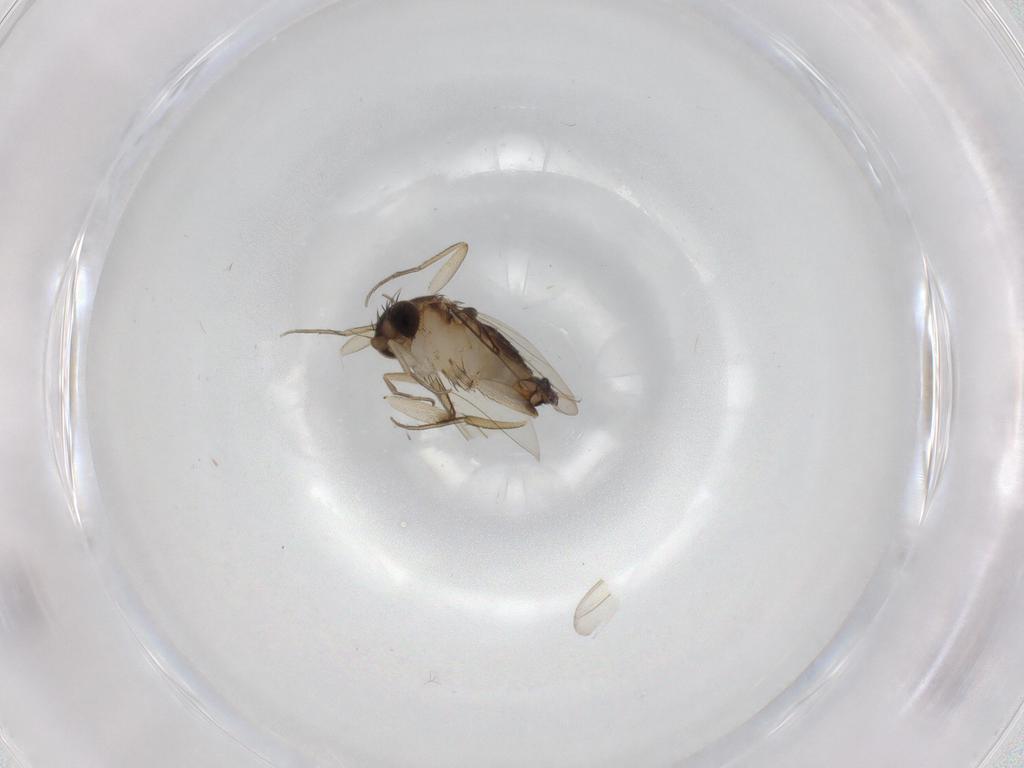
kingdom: Animalia
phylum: Arthropoda
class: Insecta
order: Diptera
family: Phoridae
